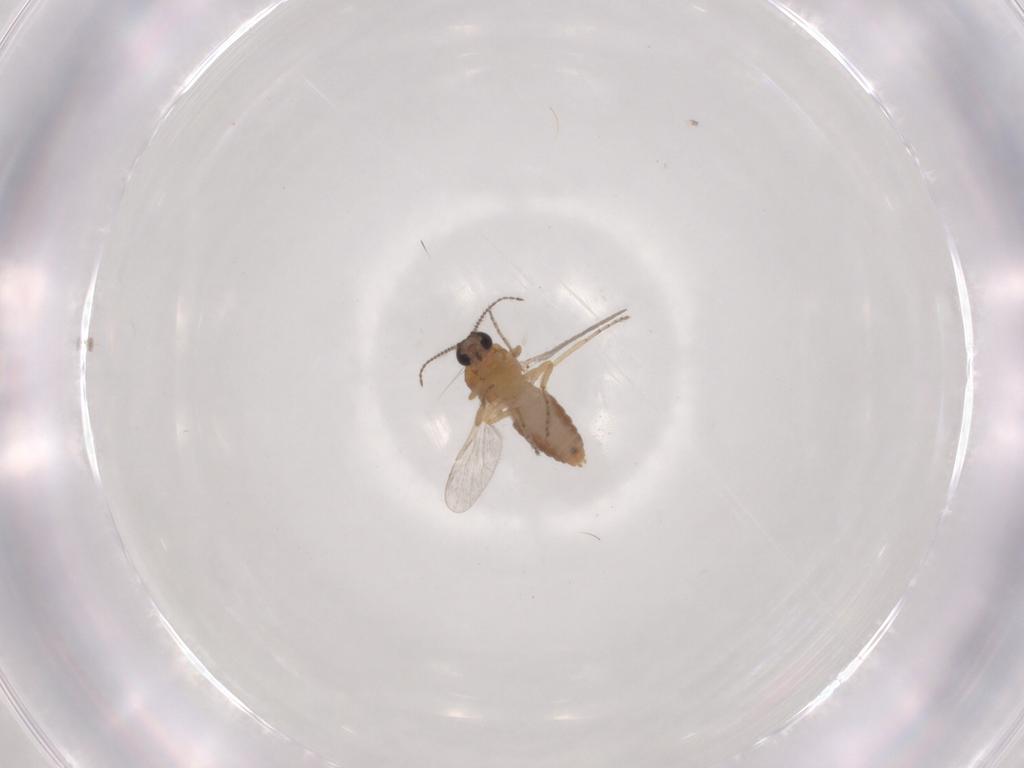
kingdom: Animalia
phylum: Arthropoda
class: Insecta
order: Diptera
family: Ceratopogonidae
